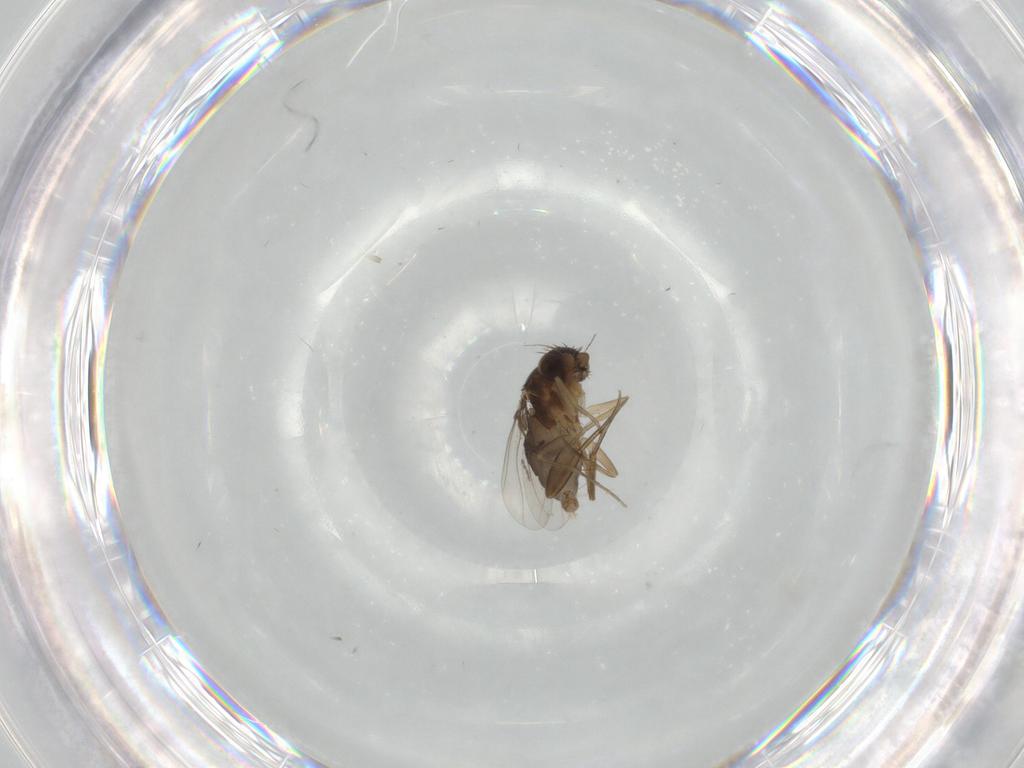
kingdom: Animalia
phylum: Arthropoda
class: Insecta
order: Diptera
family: Phoridae
